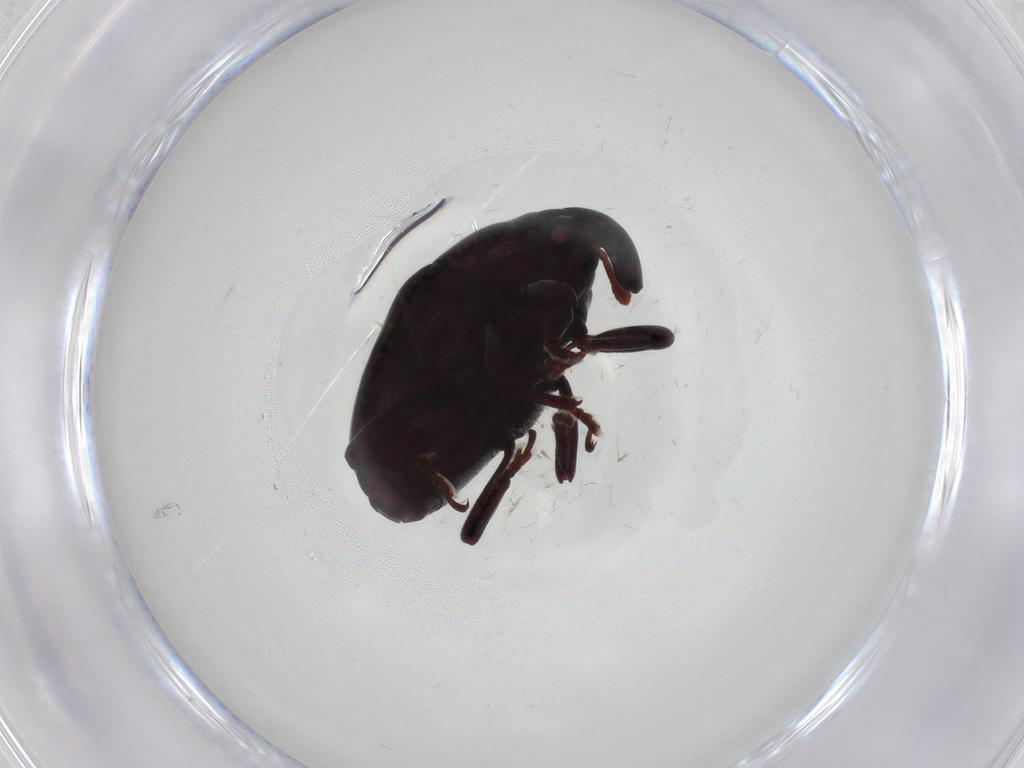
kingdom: Animalia
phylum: Arthropoda
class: Insecta
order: Coleoptera
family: Curculionidae
